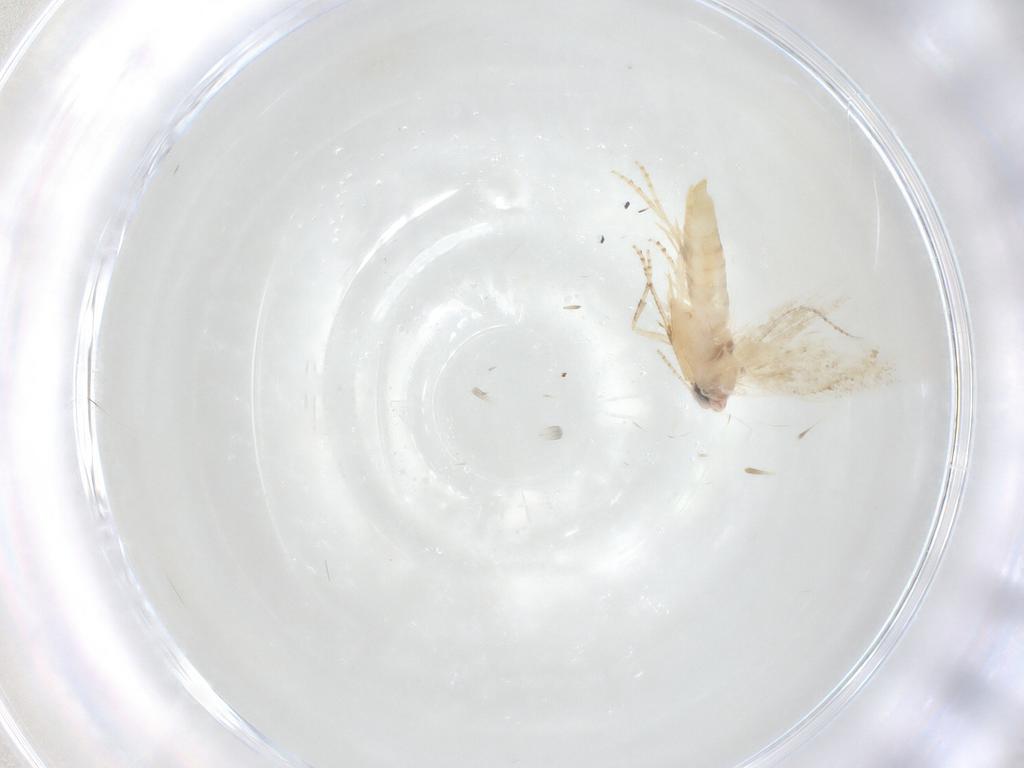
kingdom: Animalia
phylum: Arthropoda
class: Insecta
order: Lepidoptera
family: Bucculatricidae
